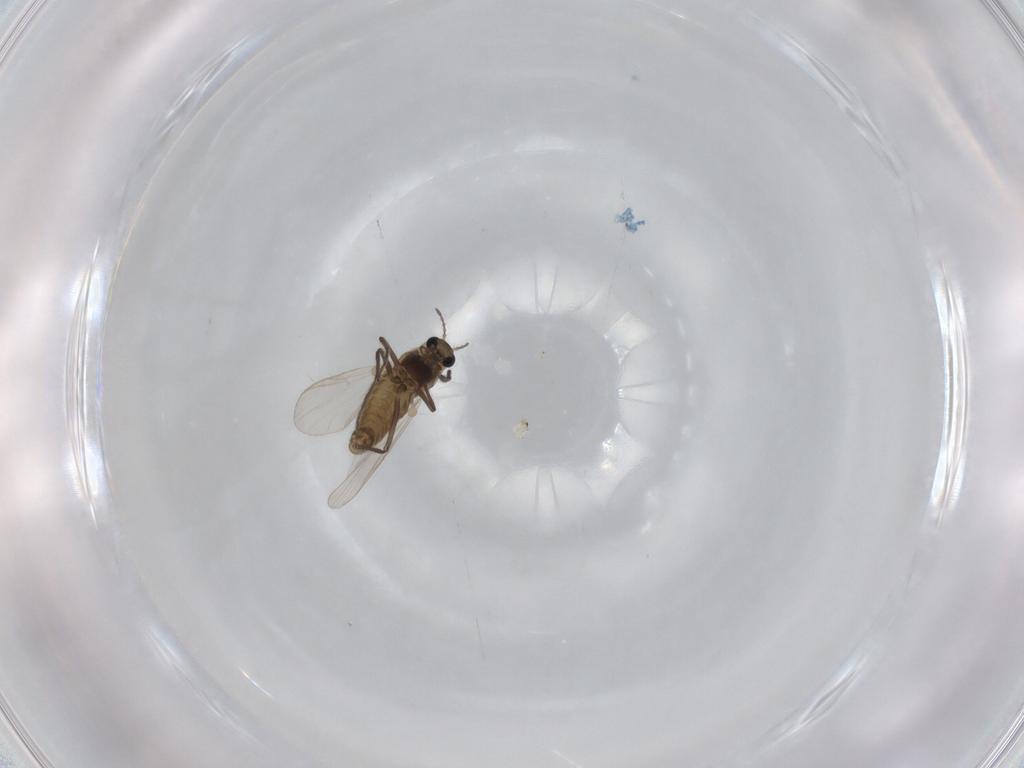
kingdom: Animalia
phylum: Arthropoda
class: Insecta
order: Diptera
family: Chironomidae
